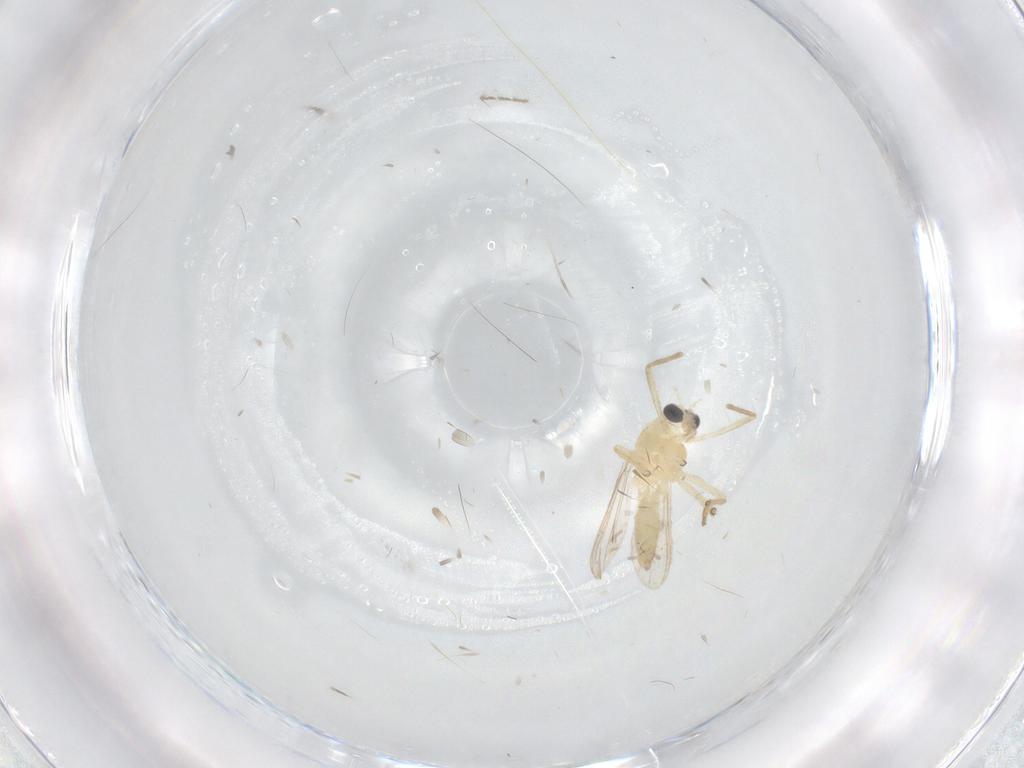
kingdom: Animalia
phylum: Arthropoda
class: Insecta
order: Diptera
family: Chironomidae
